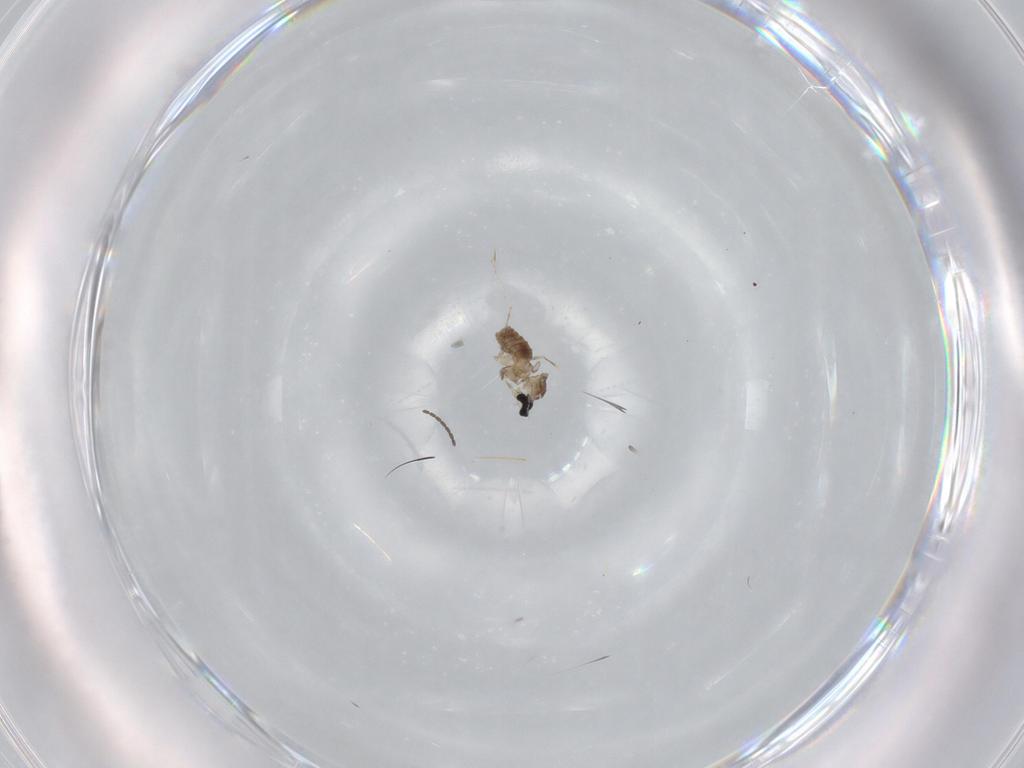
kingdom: Animalia
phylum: Arthropoda
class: Insecta
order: Diptera
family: Cecidomyiidae
